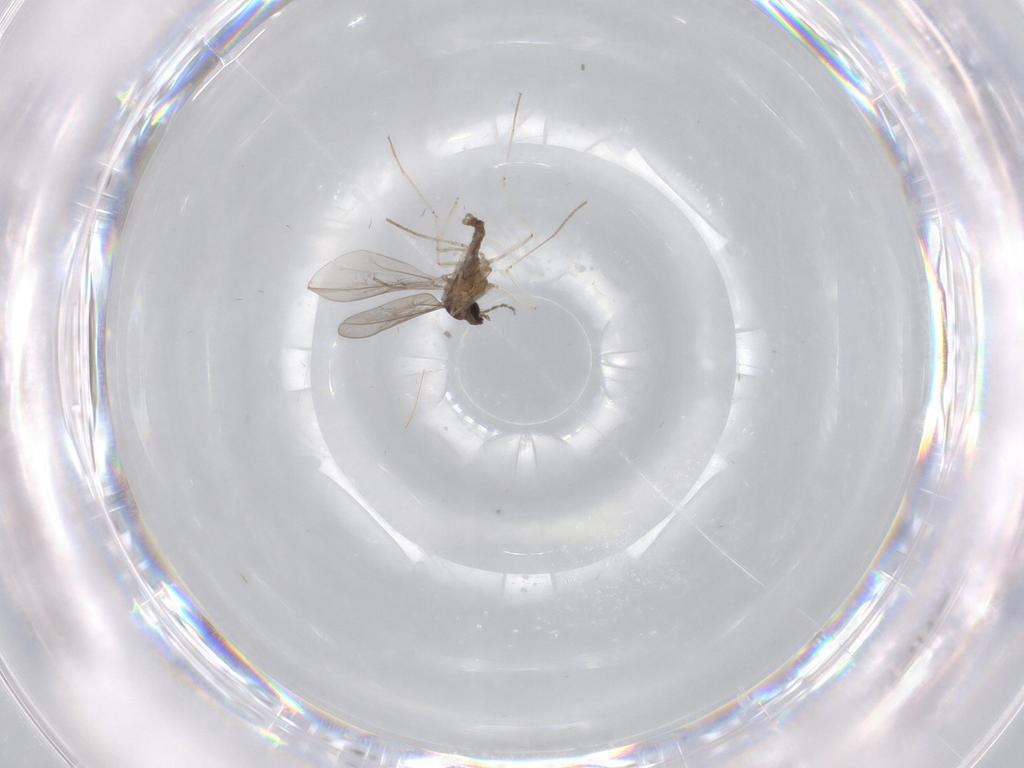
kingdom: Animalia
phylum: Arthropoda
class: Insecta
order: Diptera
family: Cecidomyiidae
